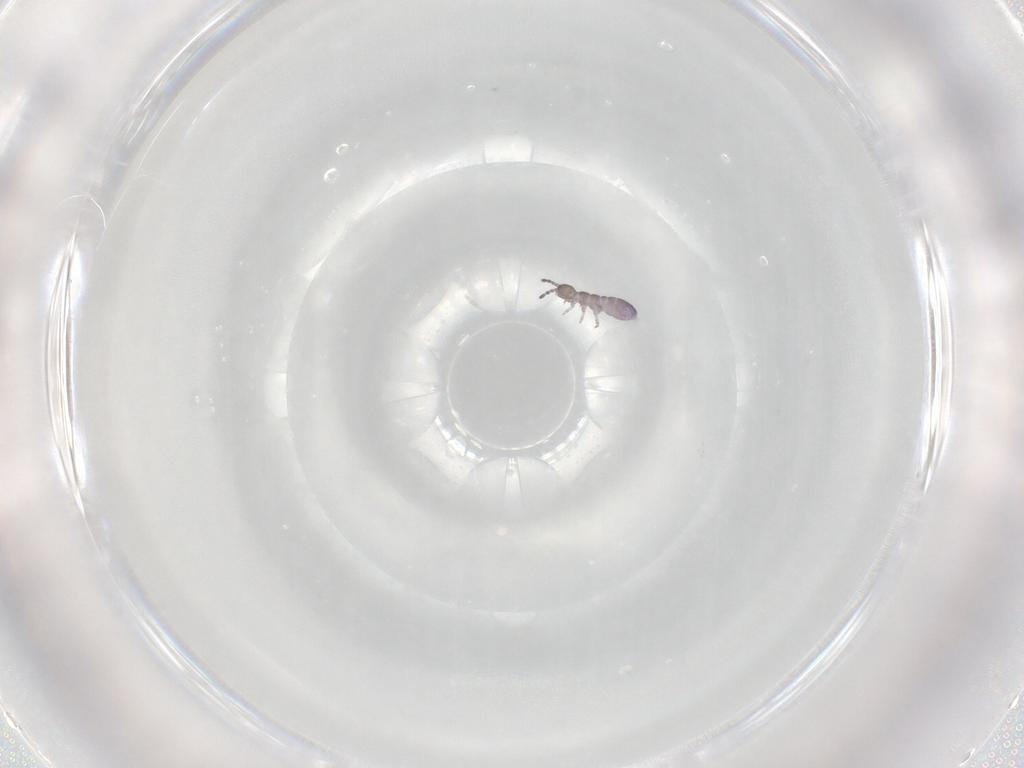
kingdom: Animalia
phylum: Arthropoda
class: Collembola
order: Entomobryomorpha
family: Isotomidae
